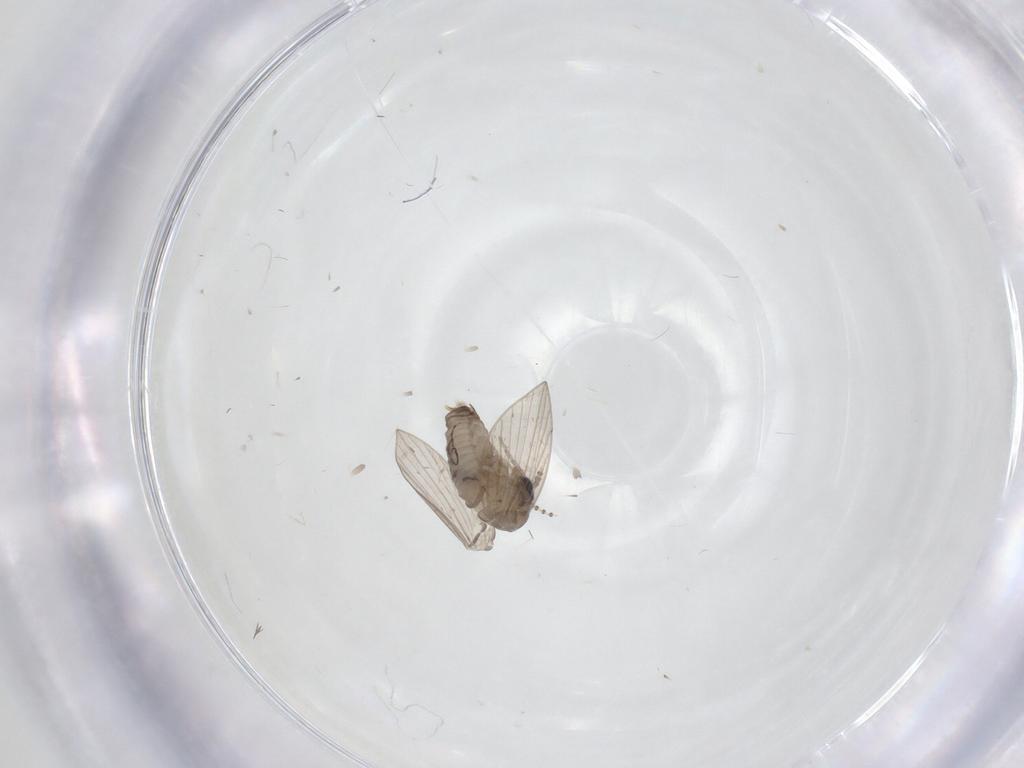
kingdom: Animalia
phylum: Arthropoda
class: Insecta
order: Diptera
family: Psychodidae
